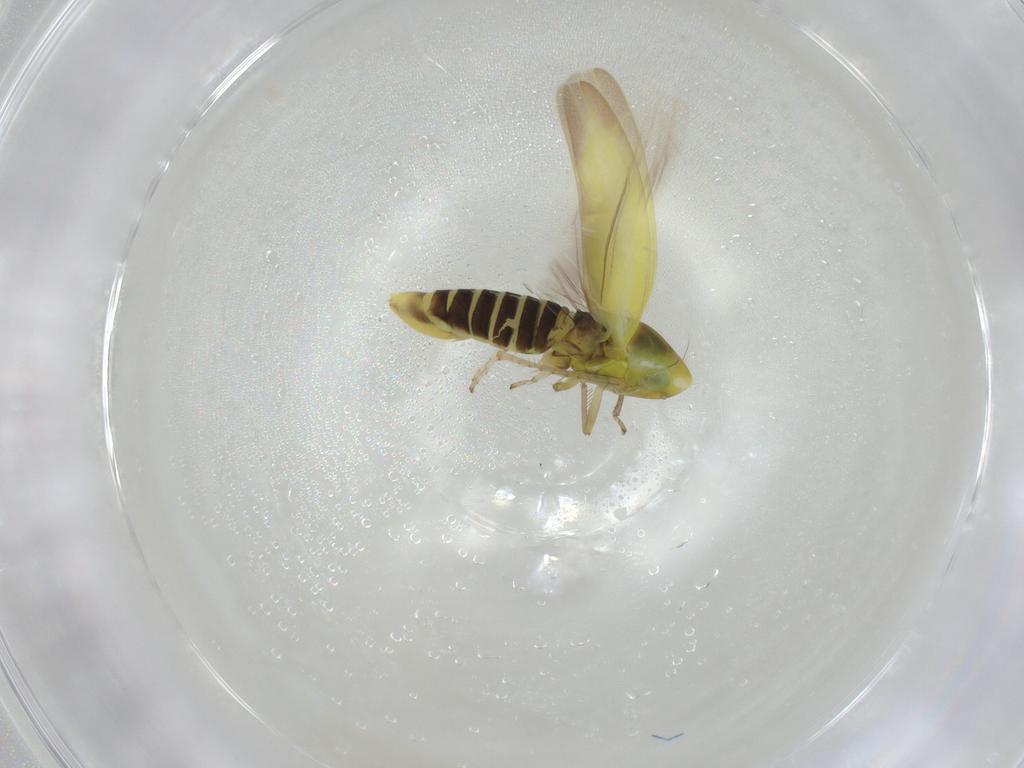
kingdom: Animalia
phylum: Arthropoda
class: Insecta
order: Hemiptera
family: Cicadellidae
